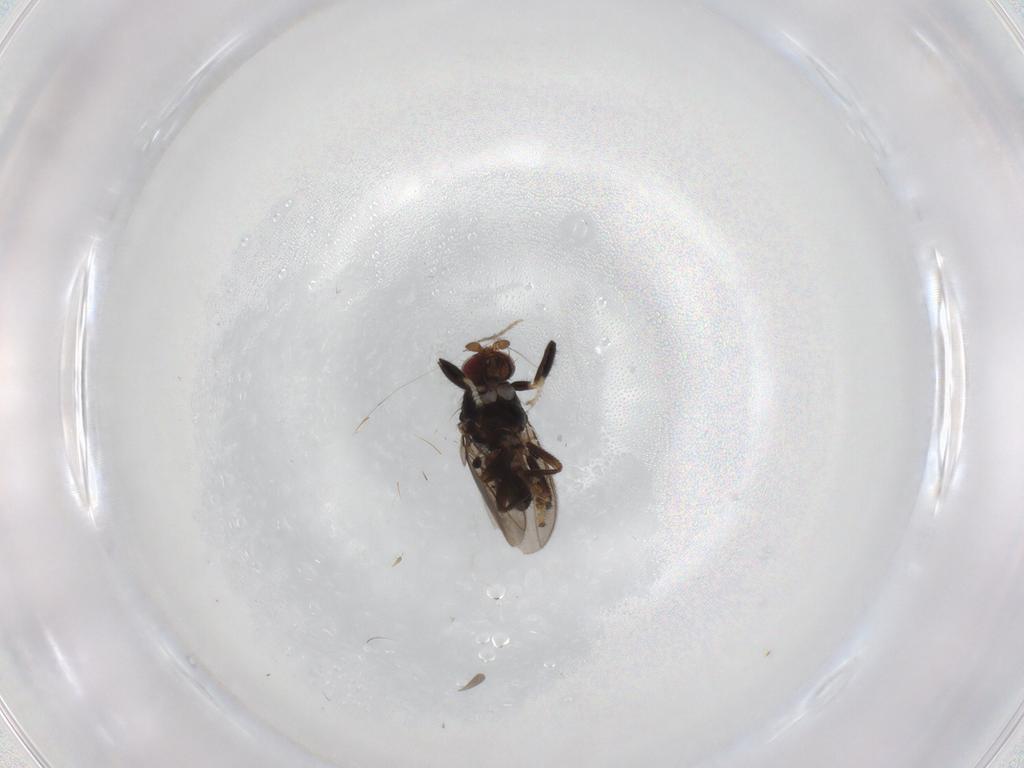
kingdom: Animalia
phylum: Arthropoda
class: Insecta
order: Diptera
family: Sphaeroceridae
